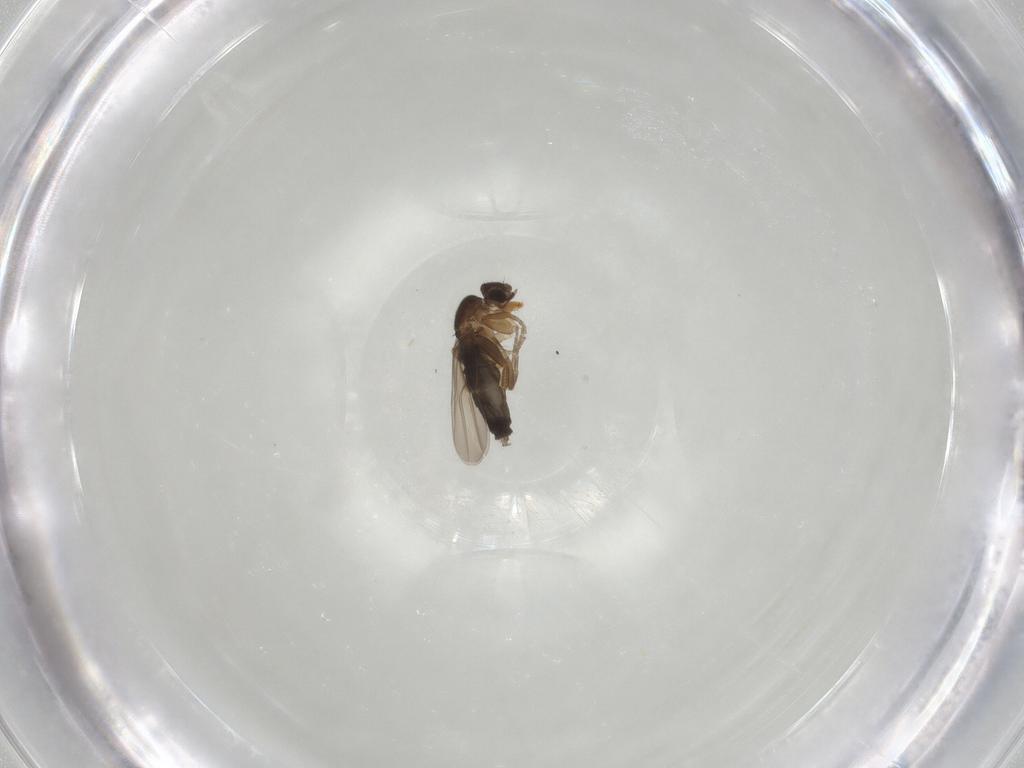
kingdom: Animalia
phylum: Arthropoda
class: Insecta
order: Diptera
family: Phoridae
